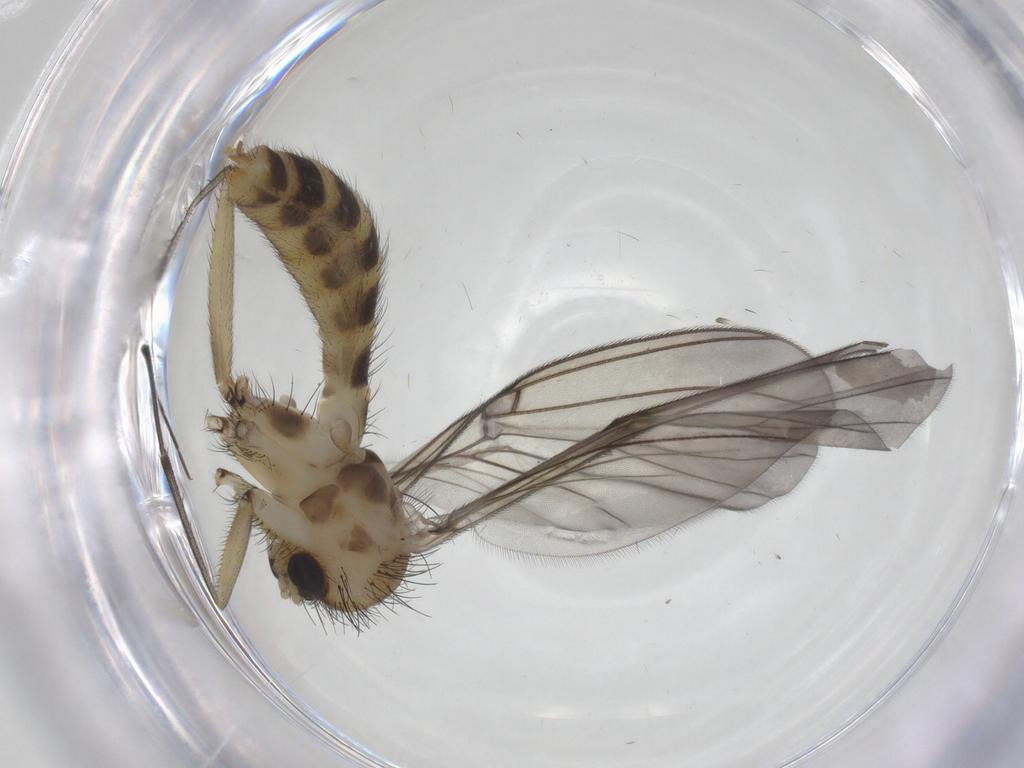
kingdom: Animalia
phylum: Arthropoda
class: Insecta
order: Diptera
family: Mycetophilidae
